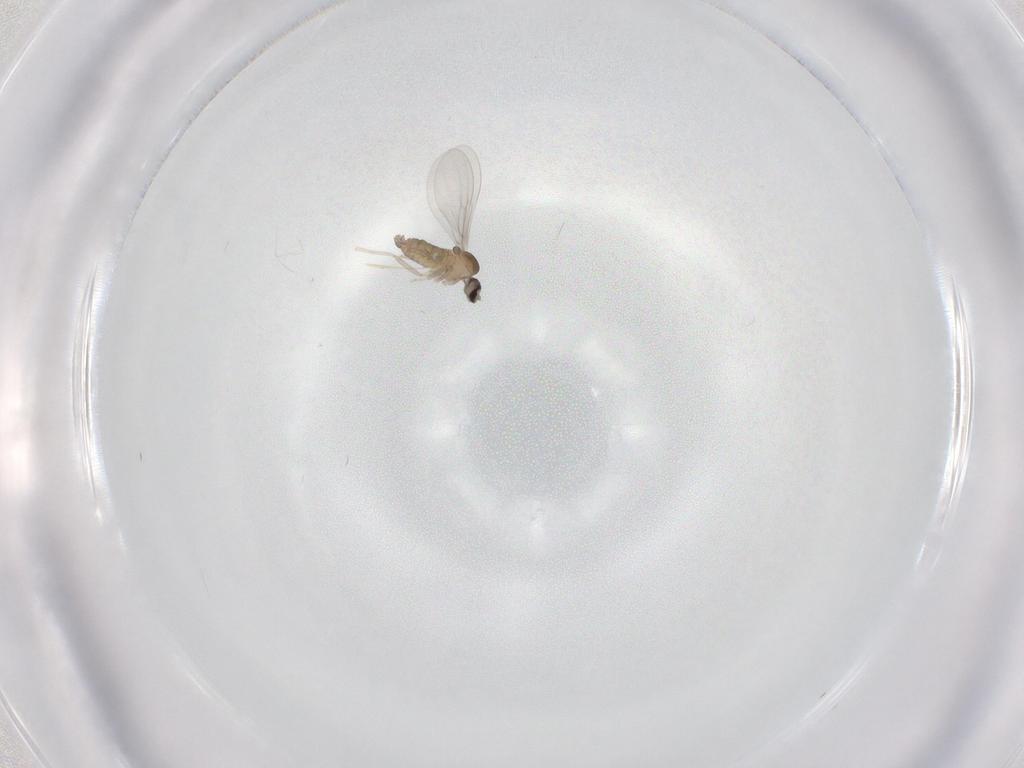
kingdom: Animalia
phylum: Arthropoda
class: Insecta
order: Diptera
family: Cecidomyiidae
